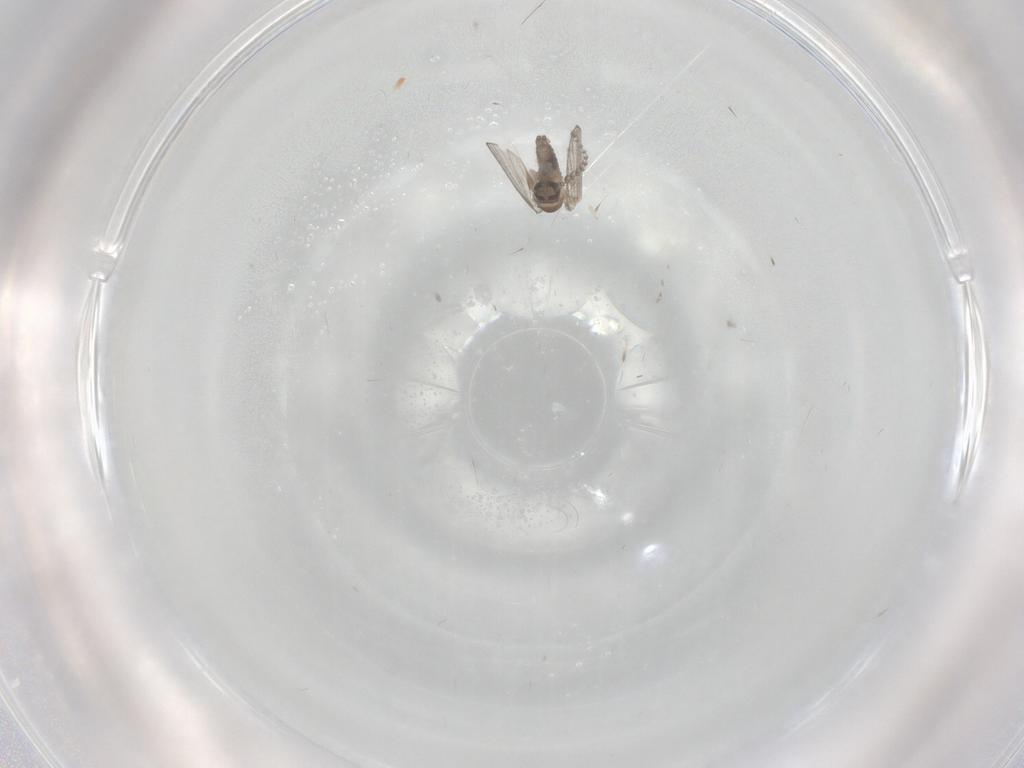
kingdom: Animalia
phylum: Arthropoda
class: Insecta
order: Diptera
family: Psychodidae
